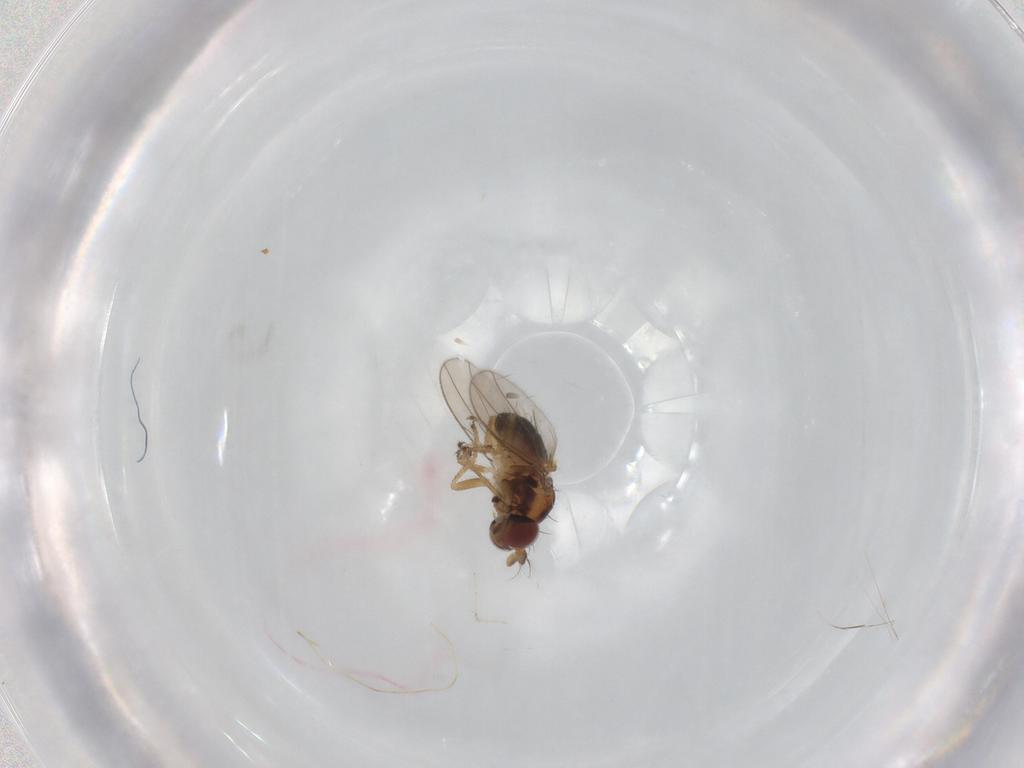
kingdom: Animalia
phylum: Arthropoda
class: Insecta
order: Diptera
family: Ephydridae
